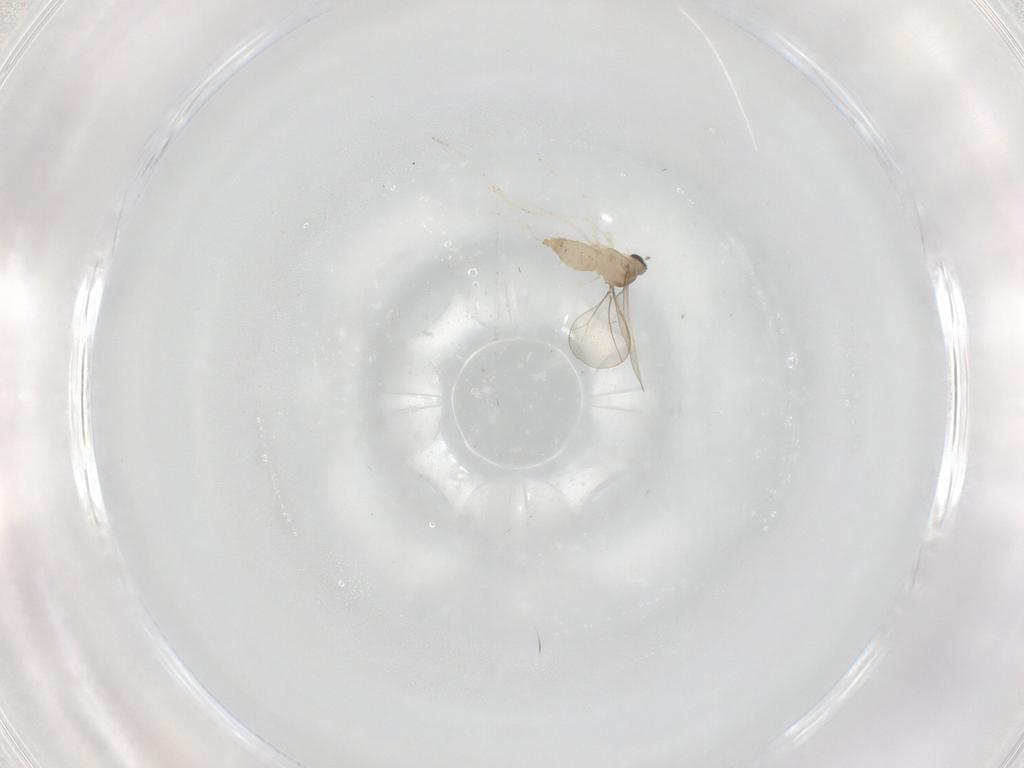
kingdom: Animalia
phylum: Arthropoda
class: Insecta
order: Diptera
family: Cecidomyiidae
